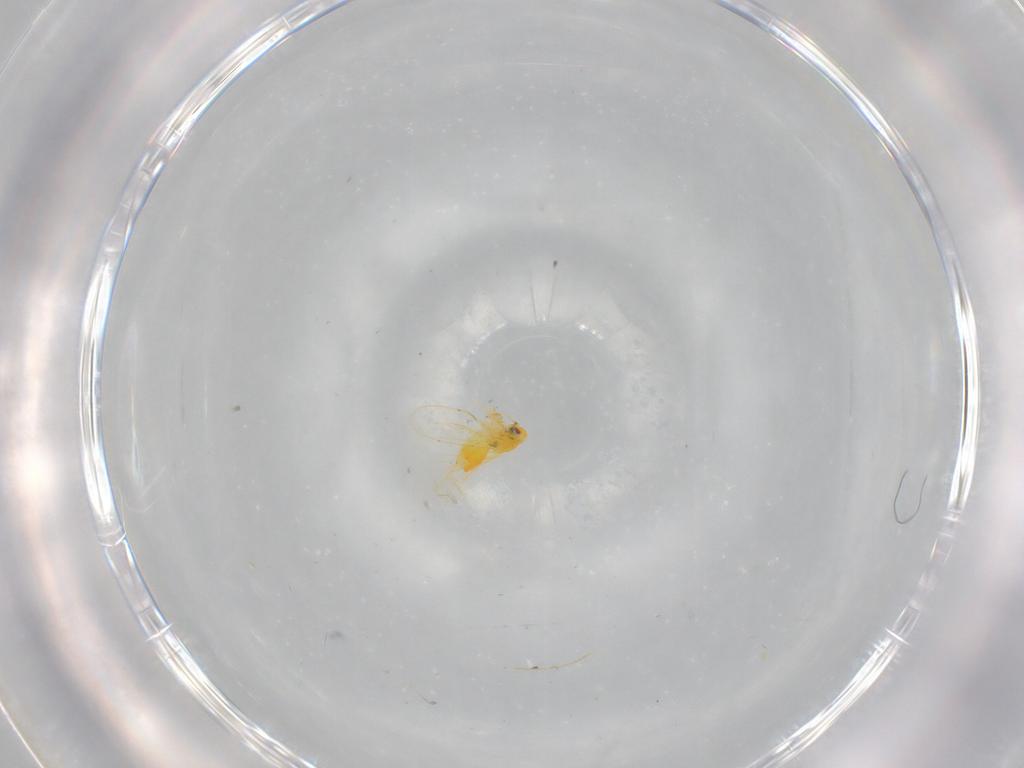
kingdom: Animalia
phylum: Arthropoda
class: Insecta
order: Hemiptera
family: Aleyrodidae
